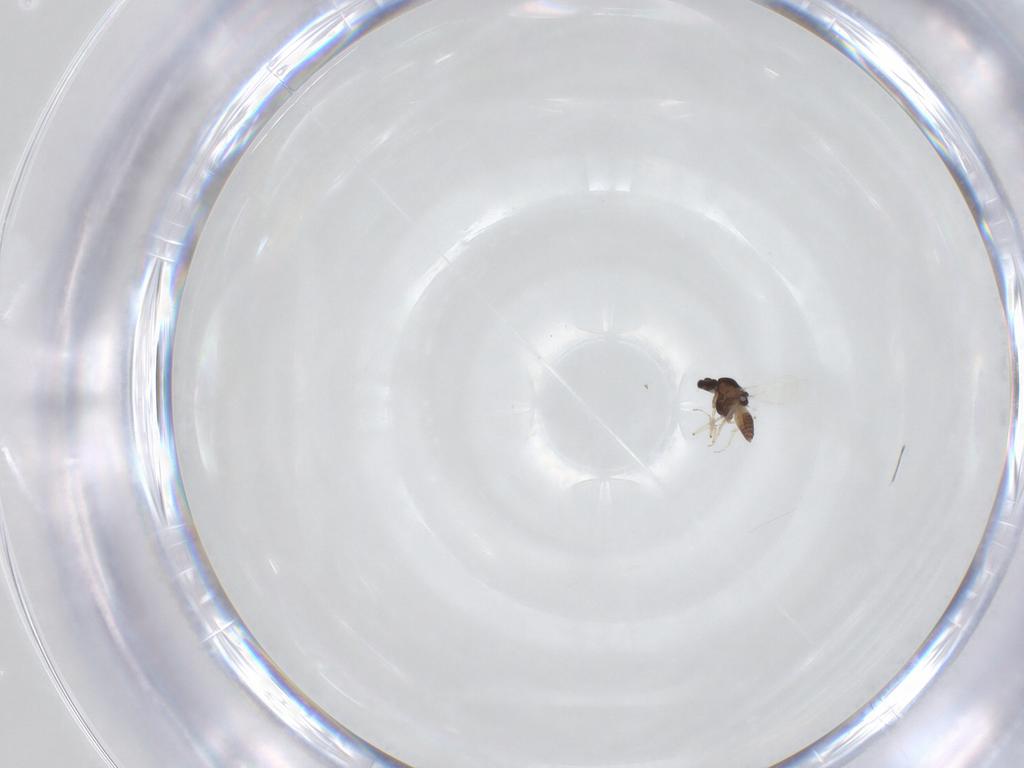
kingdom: Animalia
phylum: Arthropoda
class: Insecta
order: Diptera
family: Chironomidae
